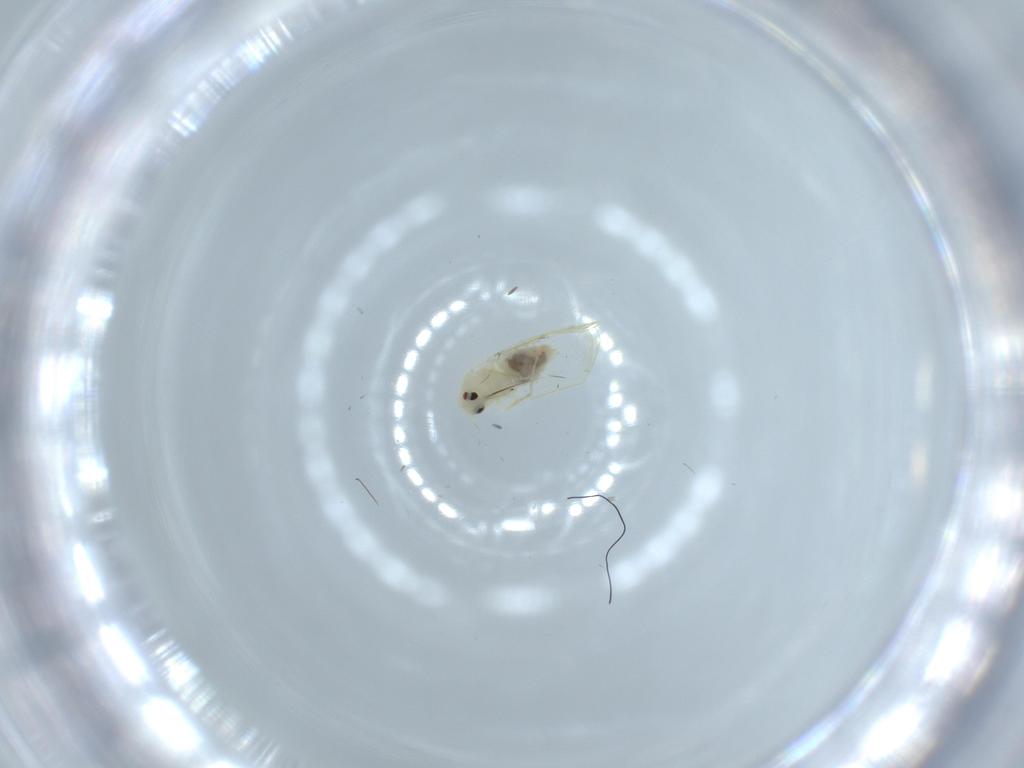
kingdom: Animalia
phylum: Arthropoda
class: Insecta
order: Hemiptera
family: Aleyrodidae
